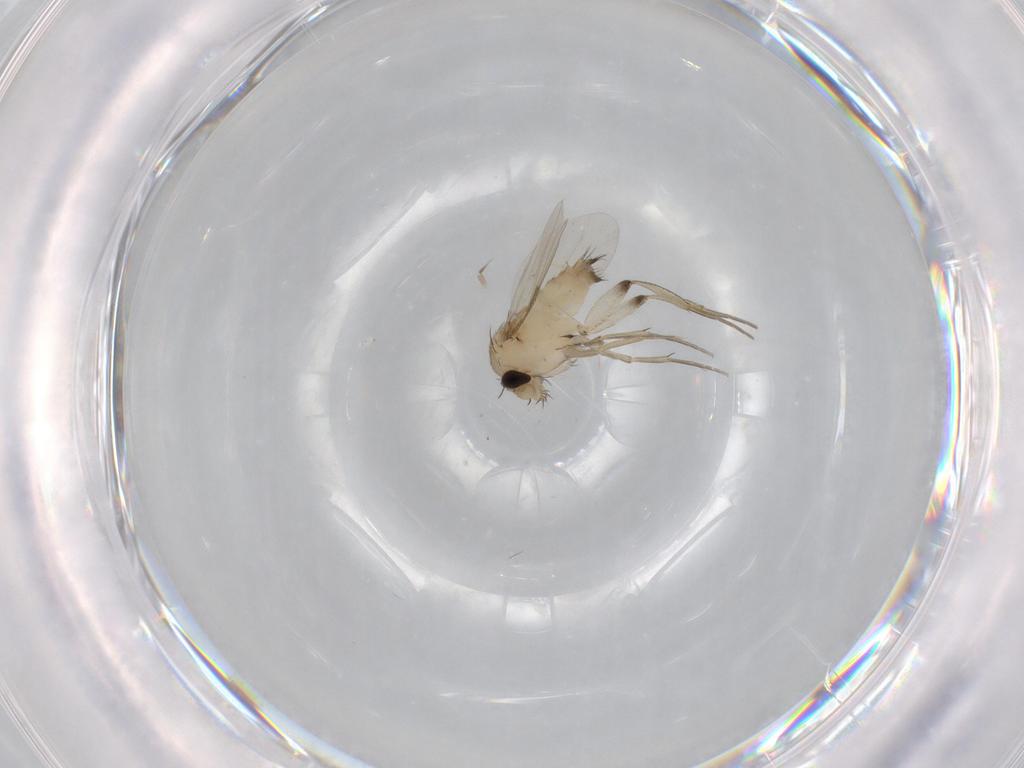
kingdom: Animalia
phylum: Arthropoda
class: Insecta
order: Diptera
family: Phoridae
